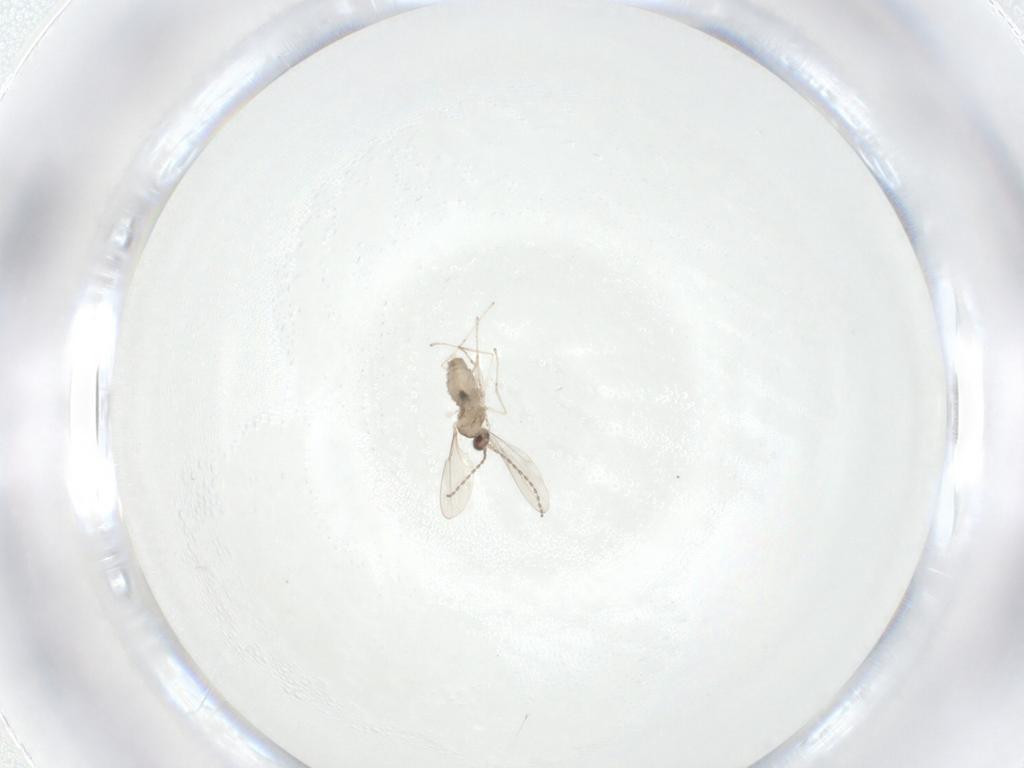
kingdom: Animalia
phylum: Arthropoda
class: Insecta
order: Diptera
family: Cecidomyiidae
